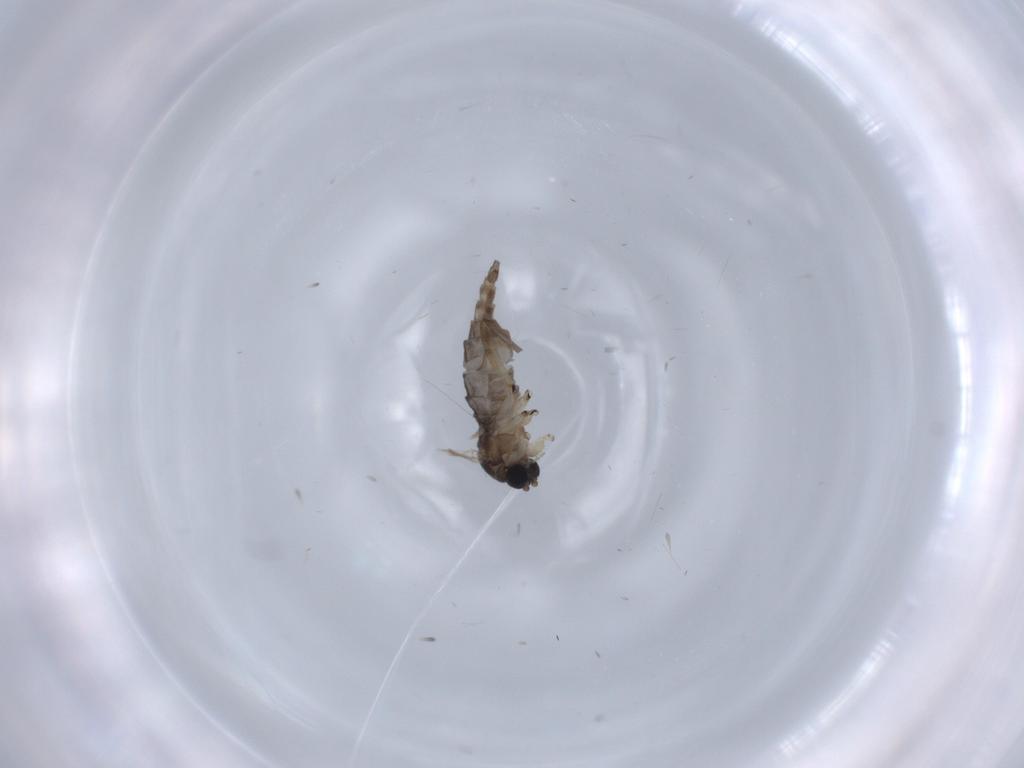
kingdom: Animalia
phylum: Arthropoda
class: Insecta
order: Diptera
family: Sciaridae
